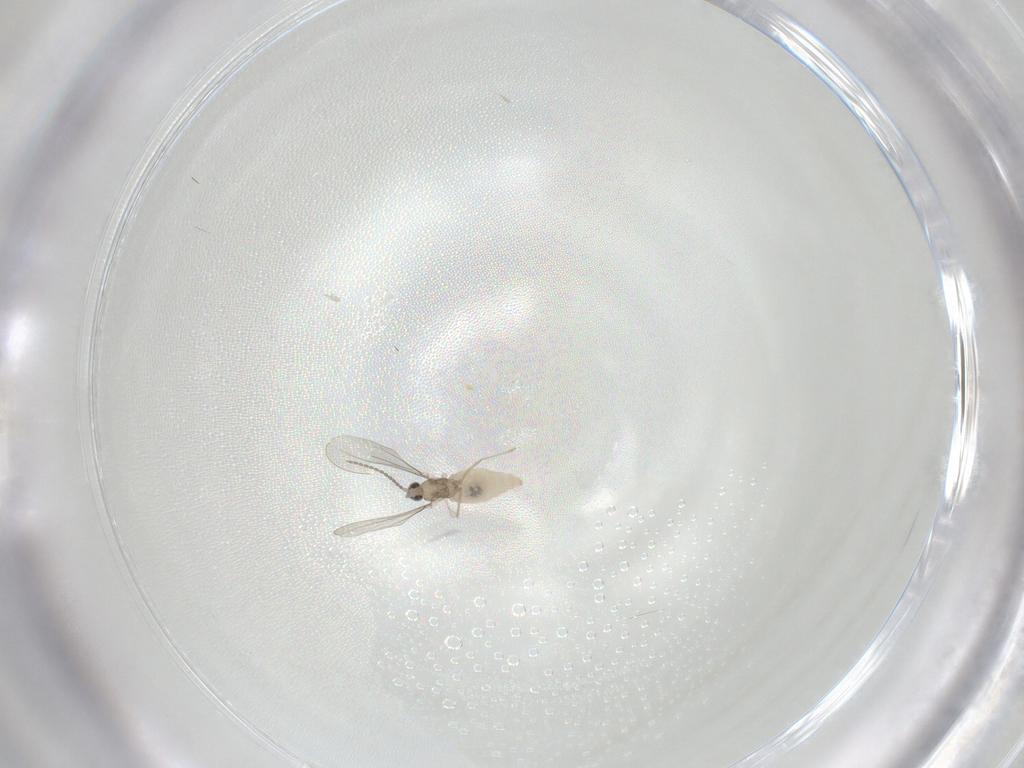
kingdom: Animalia
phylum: Arthropoda
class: Insecta
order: Diptera
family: Cecidomyiidae
